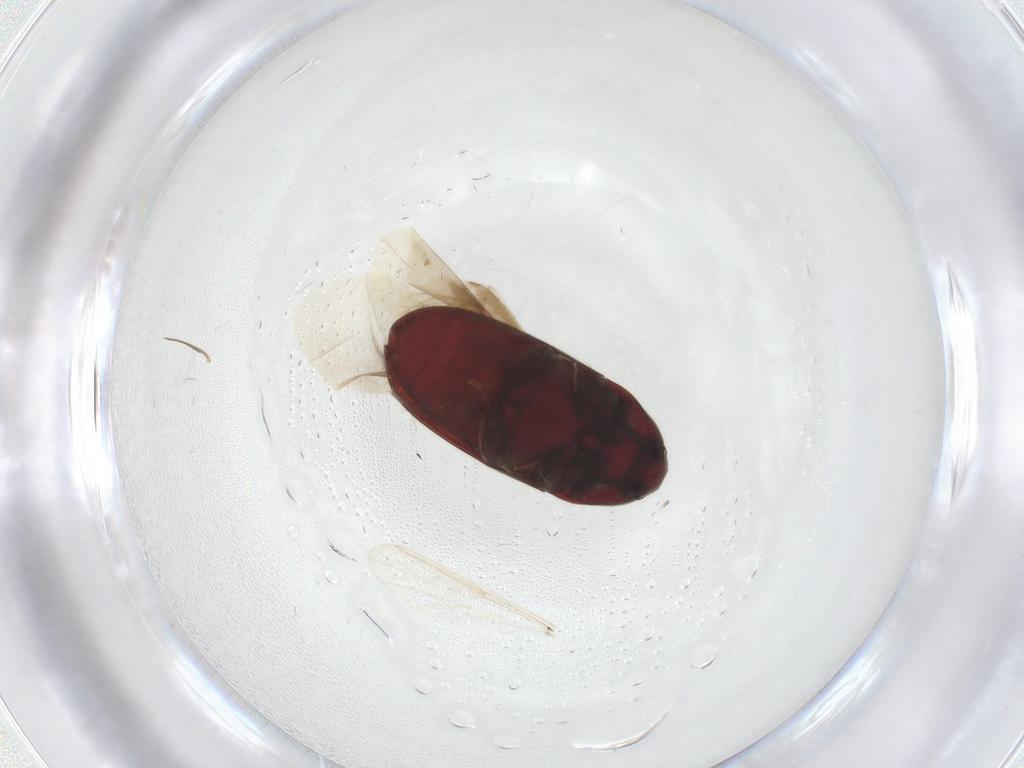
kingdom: Animalia
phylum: Arthropoda
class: Insecta
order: Coleoptera
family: Throscidae
